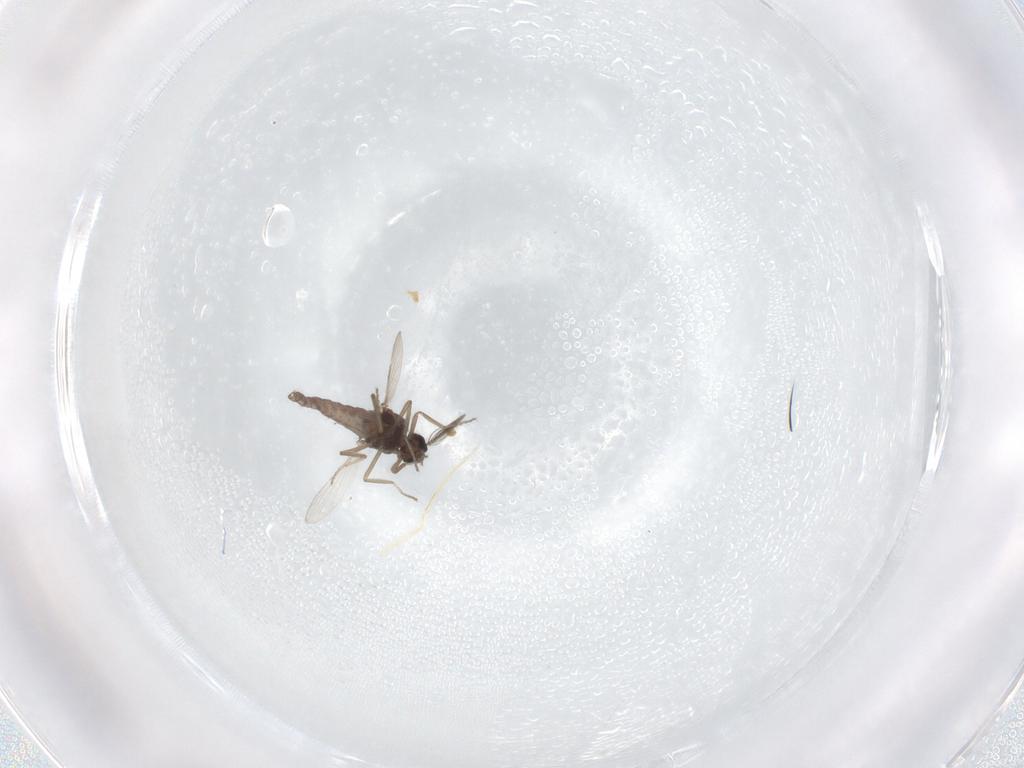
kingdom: Animalia
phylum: Arthropoda
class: Insecta
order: Diptera
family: Ceratopogonidae
